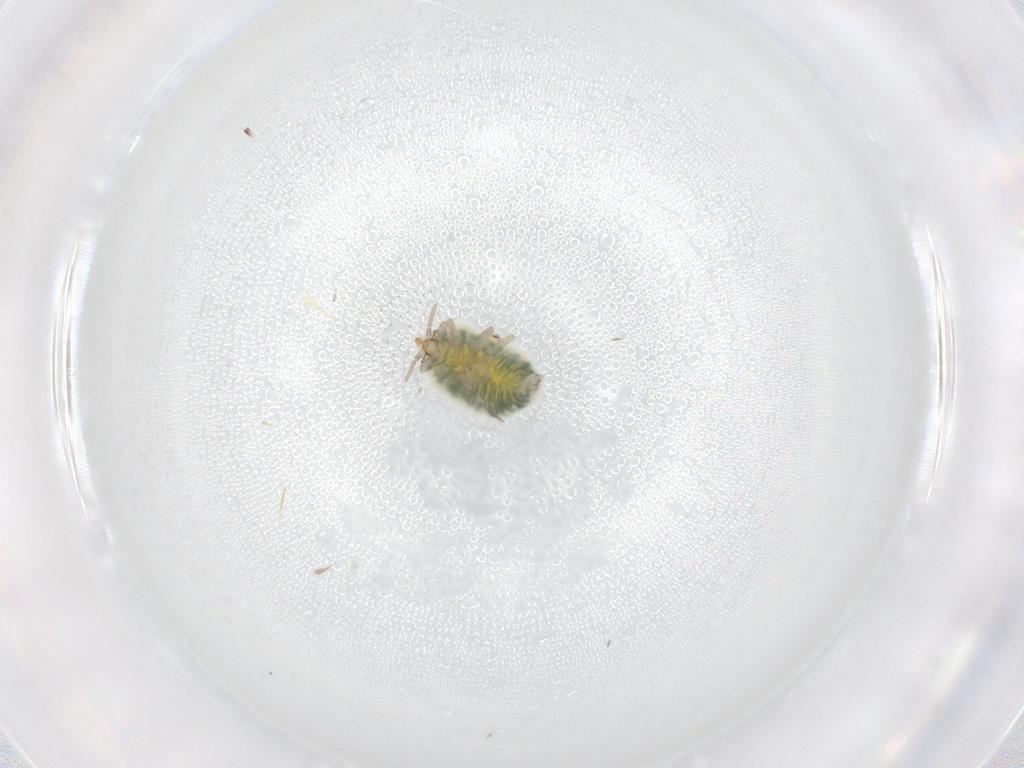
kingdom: Animalia
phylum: Arthropoda
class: Insecta
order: Neuroptera
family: Coniopterygidae
